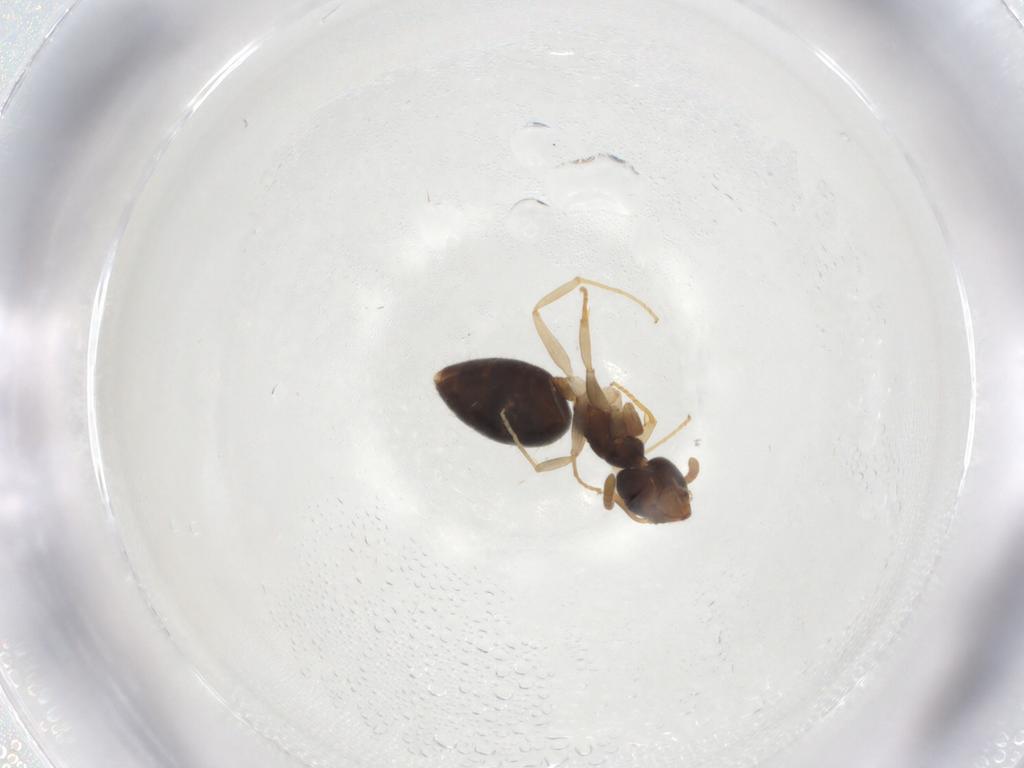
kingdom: Animalia
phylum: Arthropoda
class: Insecta
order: Hymenoptera
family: Formicidae
